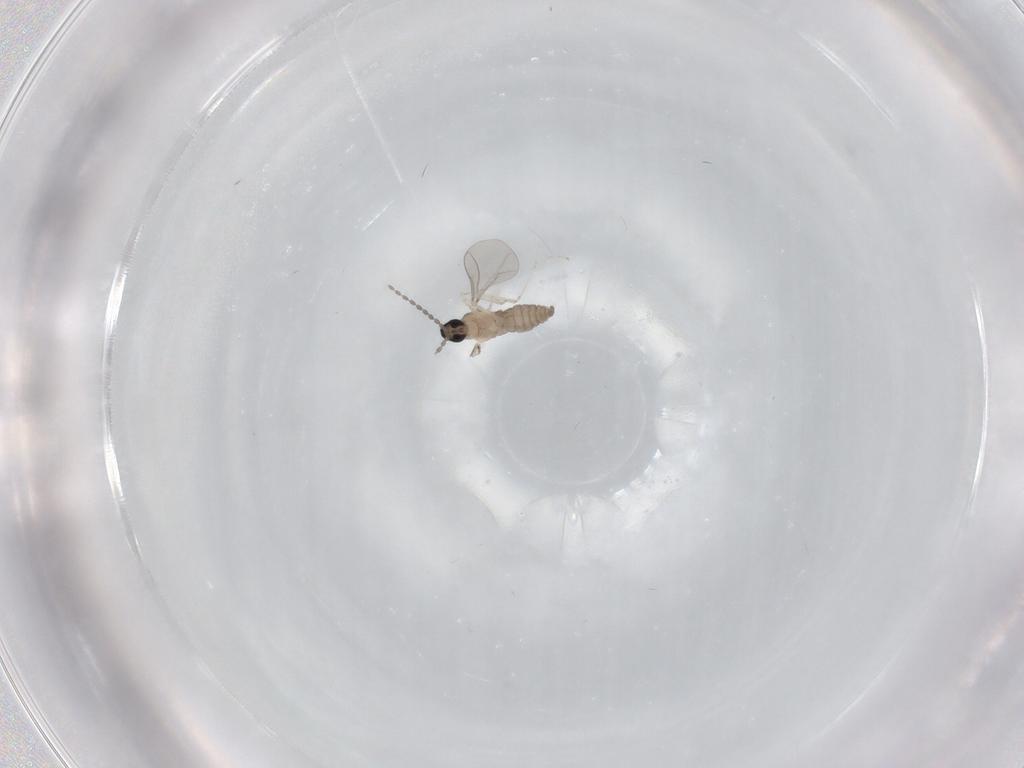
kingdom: Animalia
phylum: Arthropoda
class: Insecta
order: Diptera
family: Cecidomyiidae
